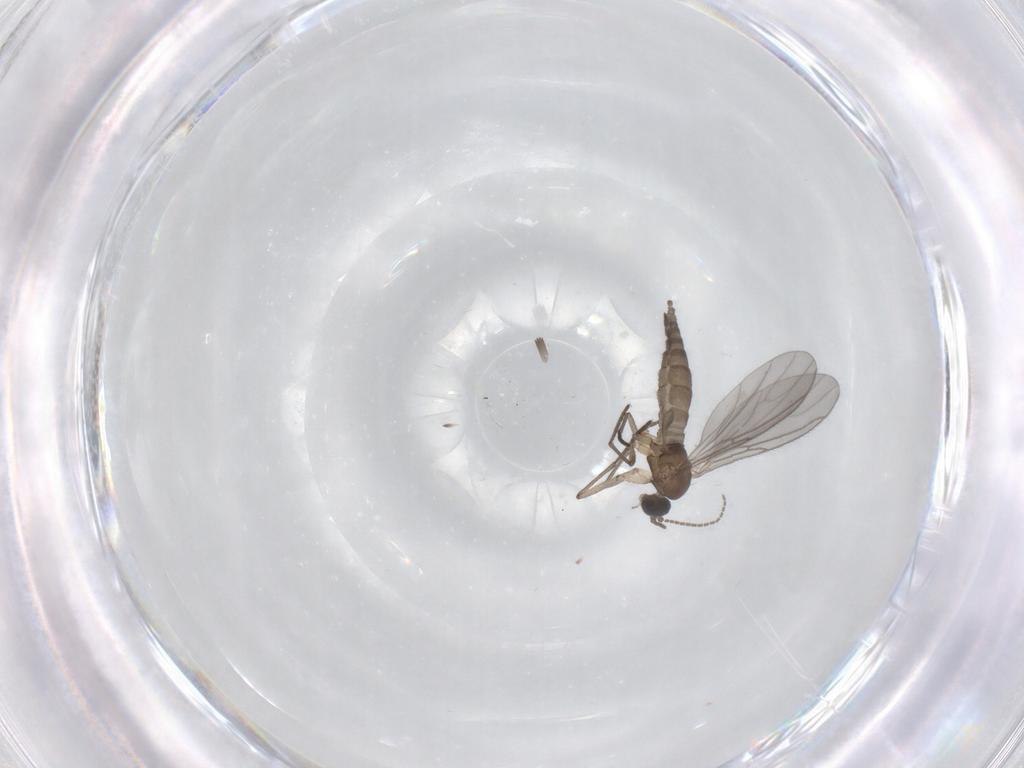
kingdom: Animalia
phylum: Arthropoda
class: Insecta
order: Diptera
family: Sciaridae
